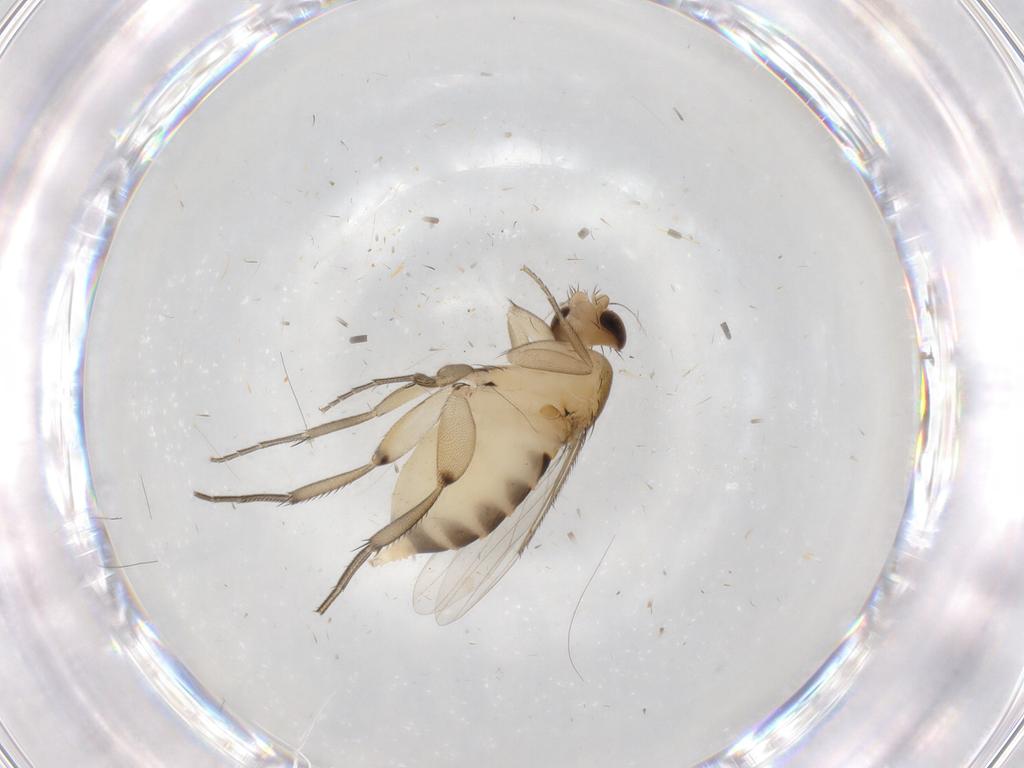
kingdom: Animalia
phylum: Arthropoda
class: Insecta
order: Diptera
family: Phoridae
